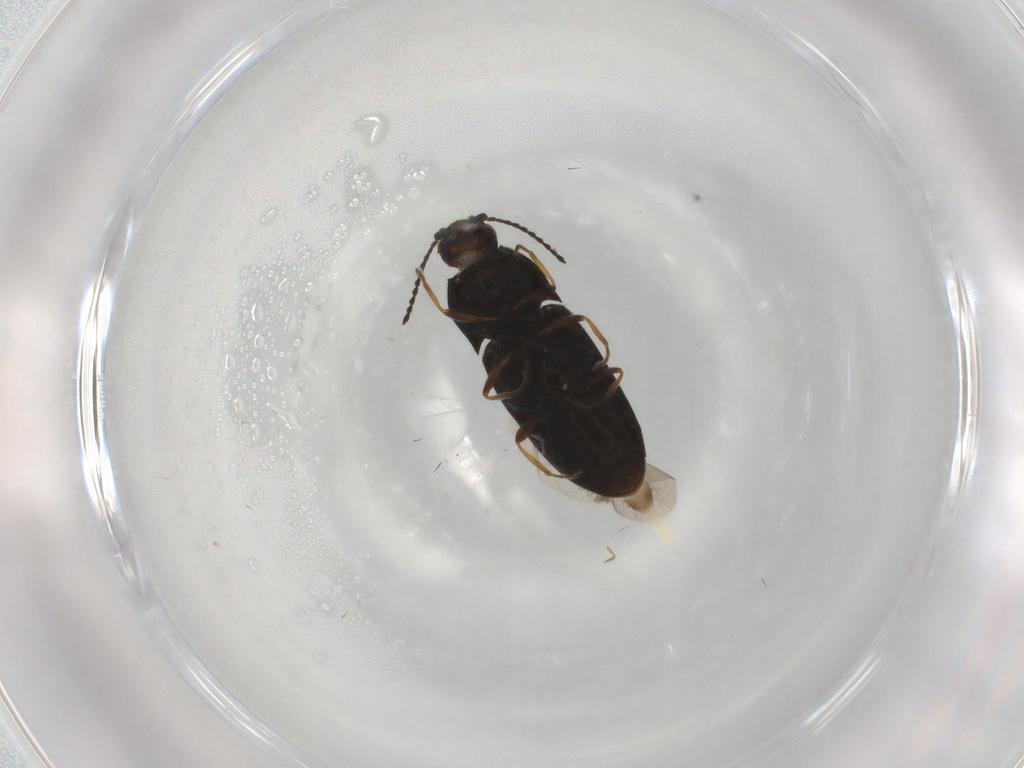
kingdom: Animalia
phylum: Arthropoda
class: Insecta
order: Coleoptera
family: Elateridae
